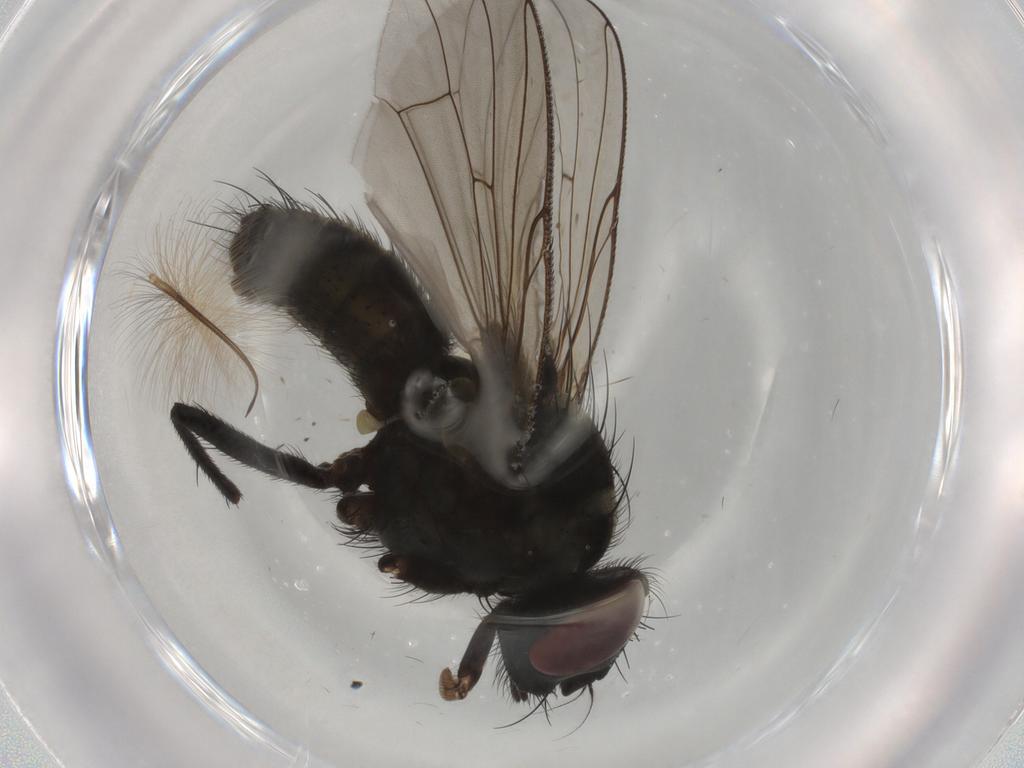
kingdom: Animalia
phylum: Arthropoda
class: Insecta
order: Diptera
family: Muscidae
